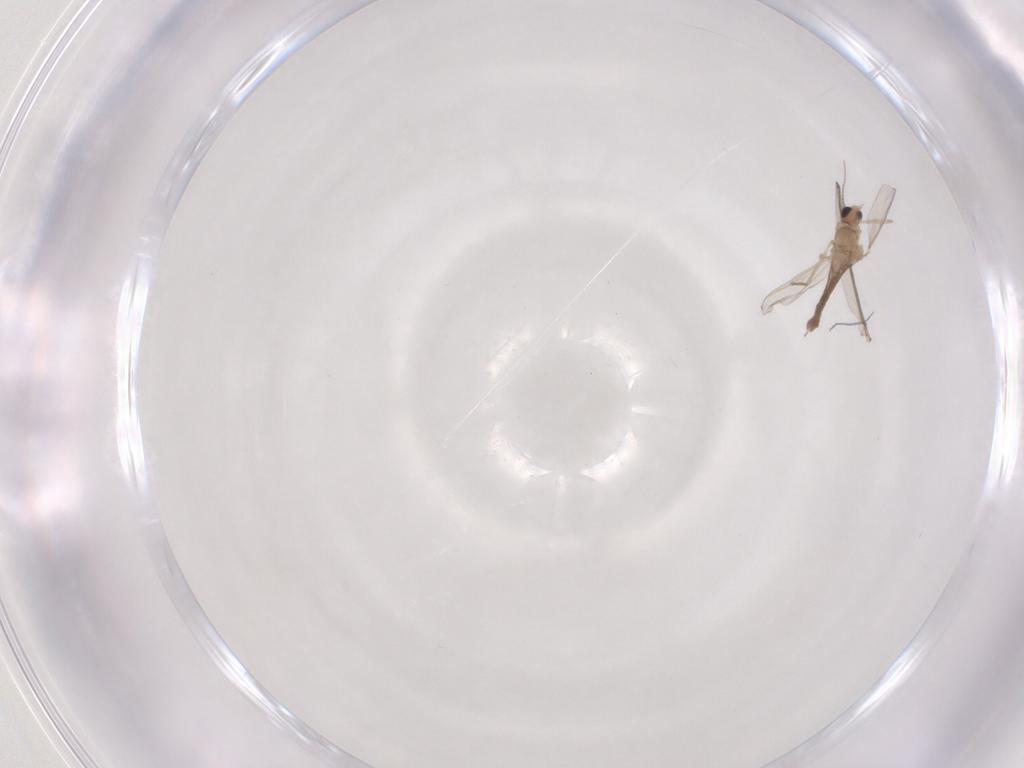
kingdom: Animalia
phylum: Arthropoda
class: Insecta
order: Diptera
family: Chironomidae
